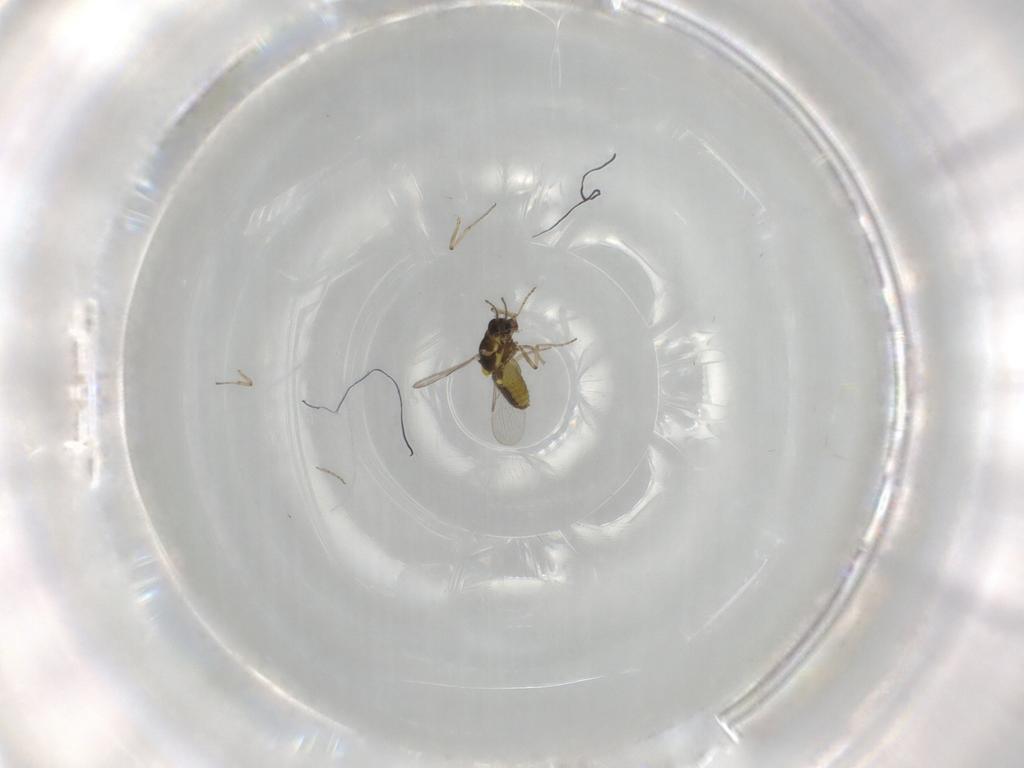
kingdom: Animalia
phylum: Arthropoda
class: Insecta
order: Diptera
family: Ceratopogonidae
